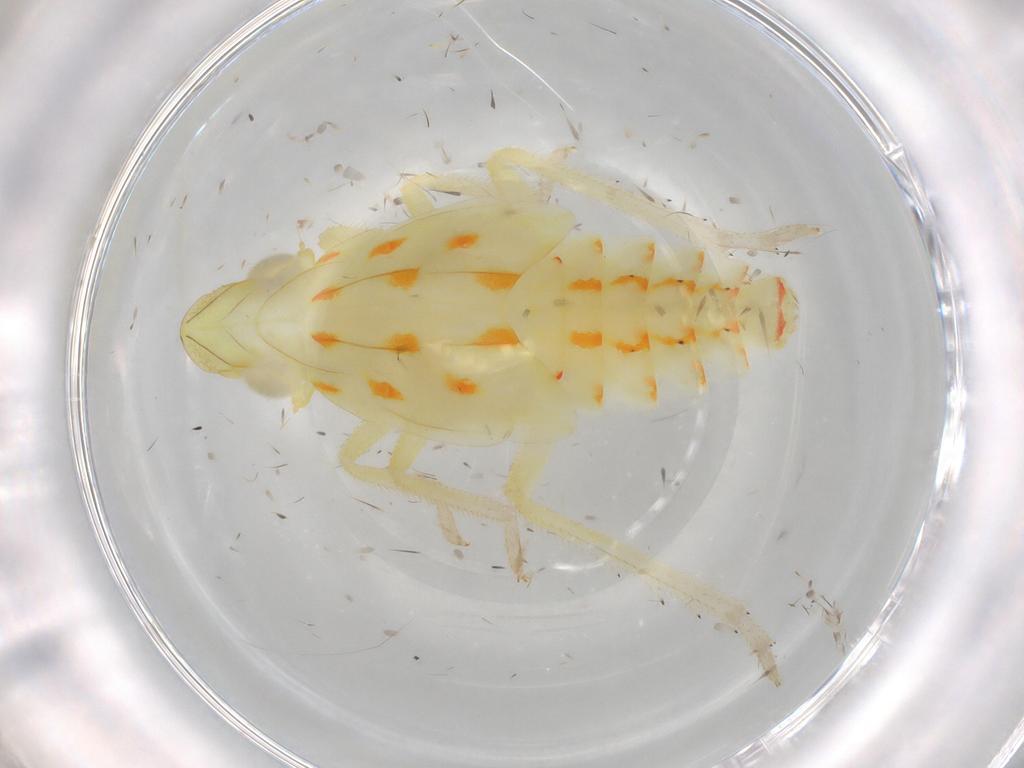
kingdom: Animalia
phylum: Arthropoda
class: Insecta
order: Hemiptera
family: Tropiduchidae
